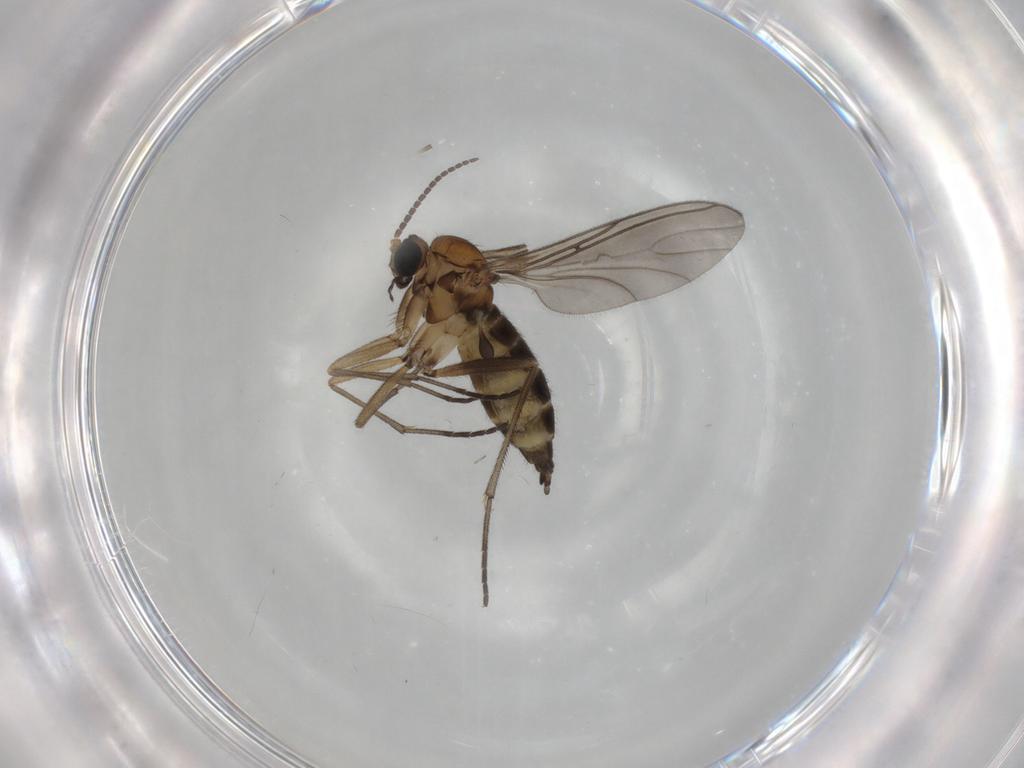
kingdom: Animalia
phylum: Arthropoda
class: Insecta
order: Diptera
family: Sciaridae
